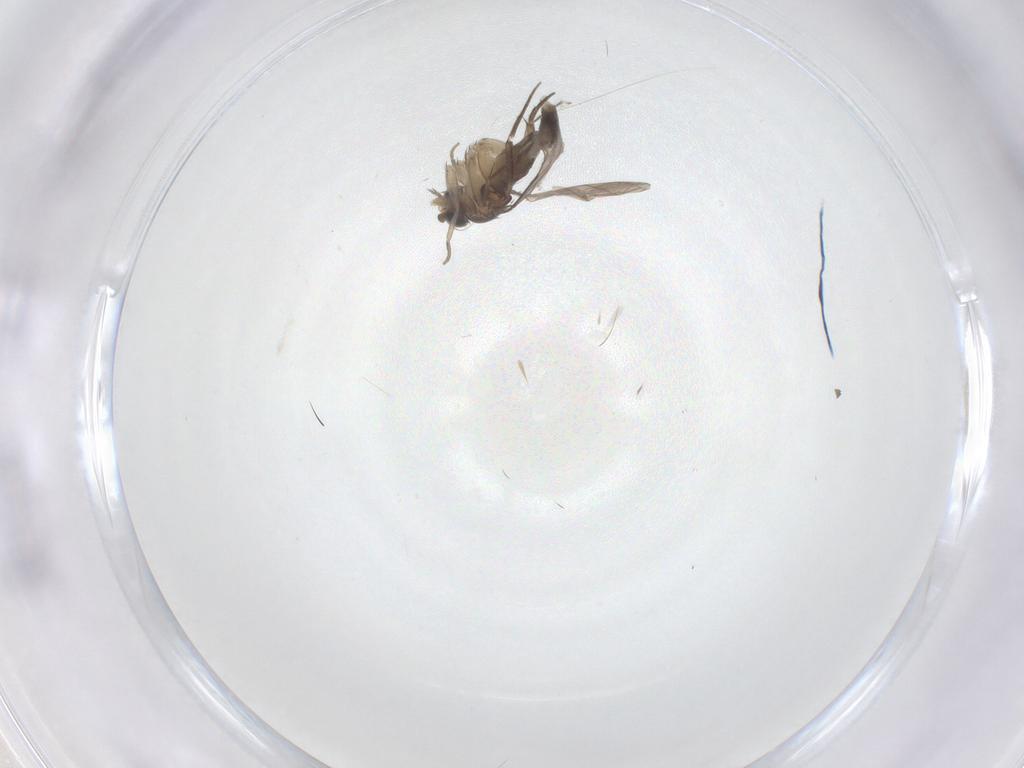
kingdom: Animalia
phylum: Arthropoda
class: Insecta
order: Diptera
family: Phoridae
